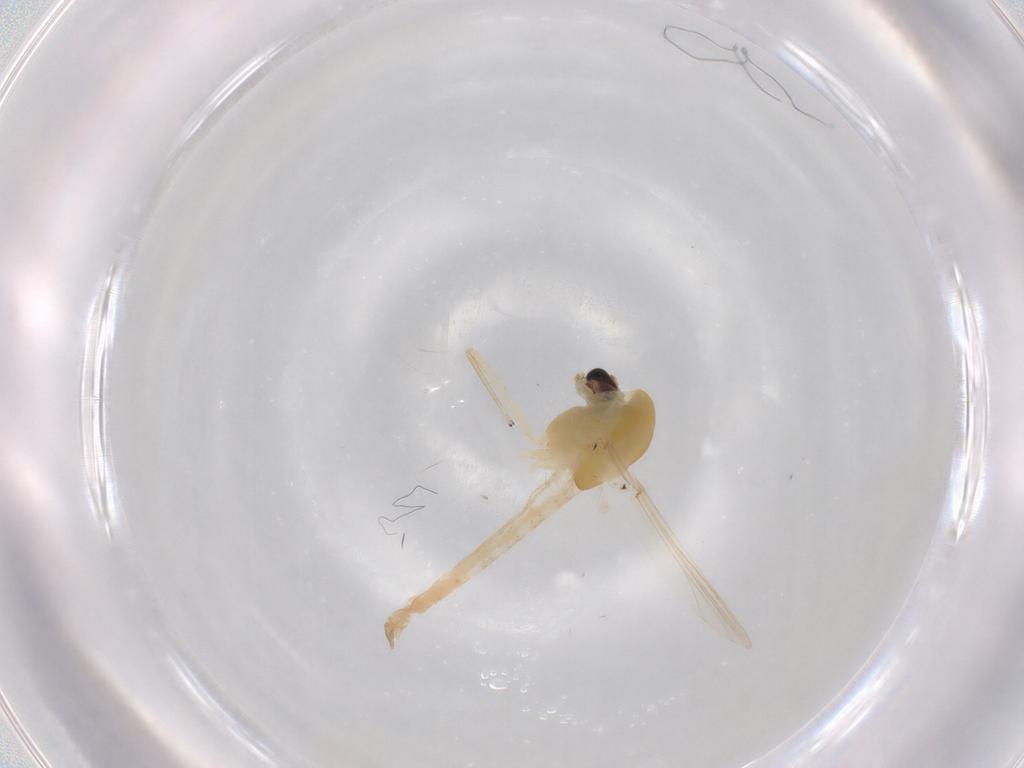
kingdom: Animalia
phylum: Arthropoda
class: Insecta
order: Diptera
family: Chironomidae
